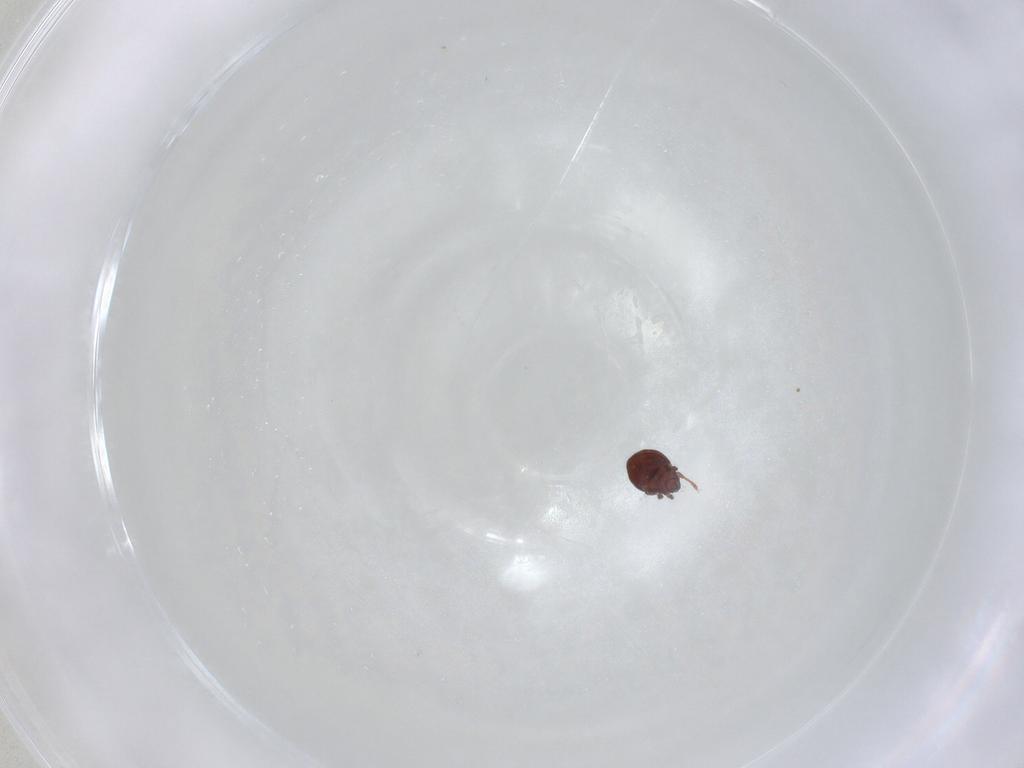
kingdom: Animalia
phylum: Arthropoda
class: Arachnida
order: Sarcoptiformes
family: Scheloribatidae
